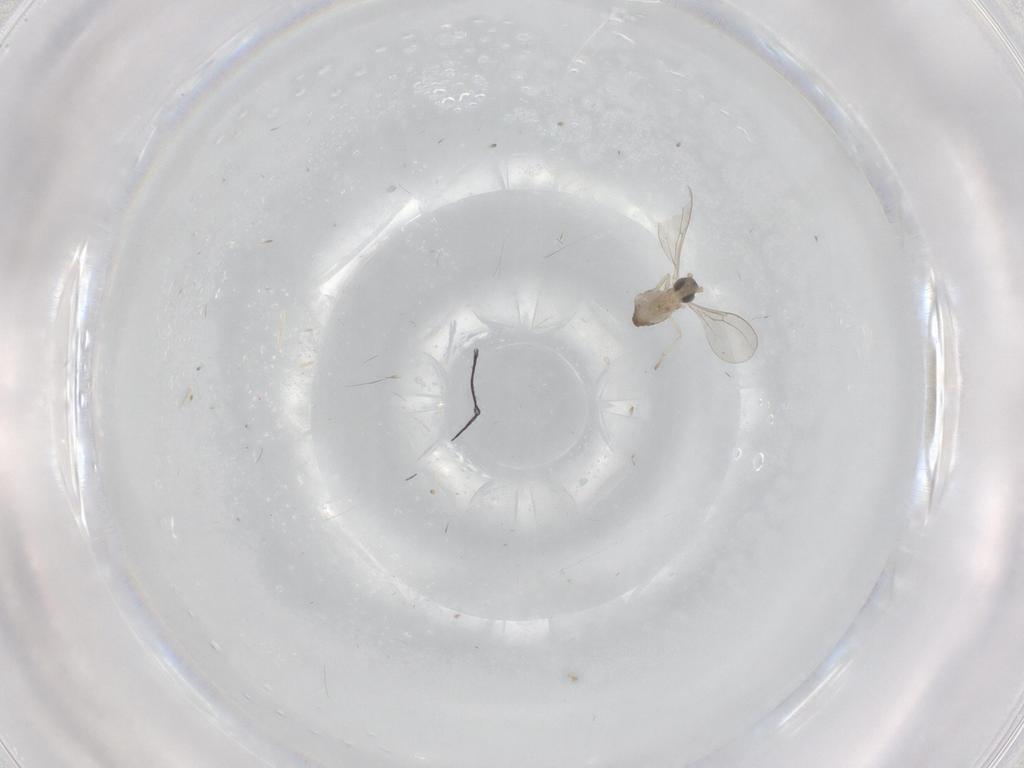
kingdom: Animalia
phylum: Arthropoda
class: Insecta
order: Diptera
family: Cecidomyiidae
